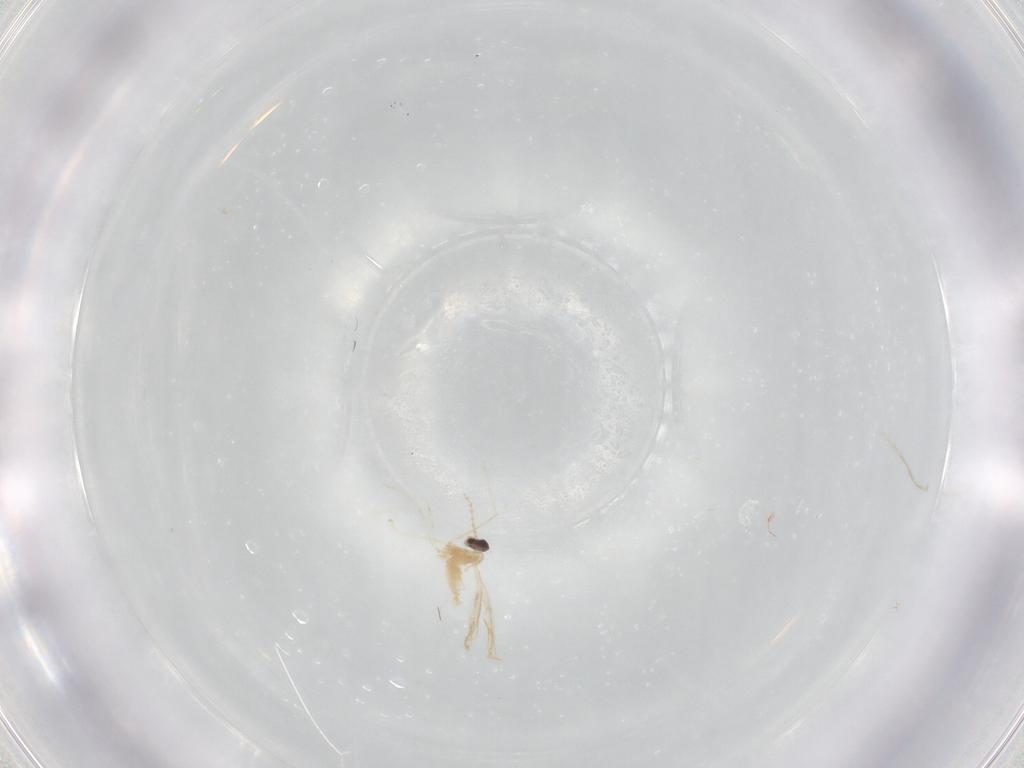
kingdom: Animalia
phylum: Arthropoda
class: Insecta
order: Diptera
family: Cecidomyiidae
